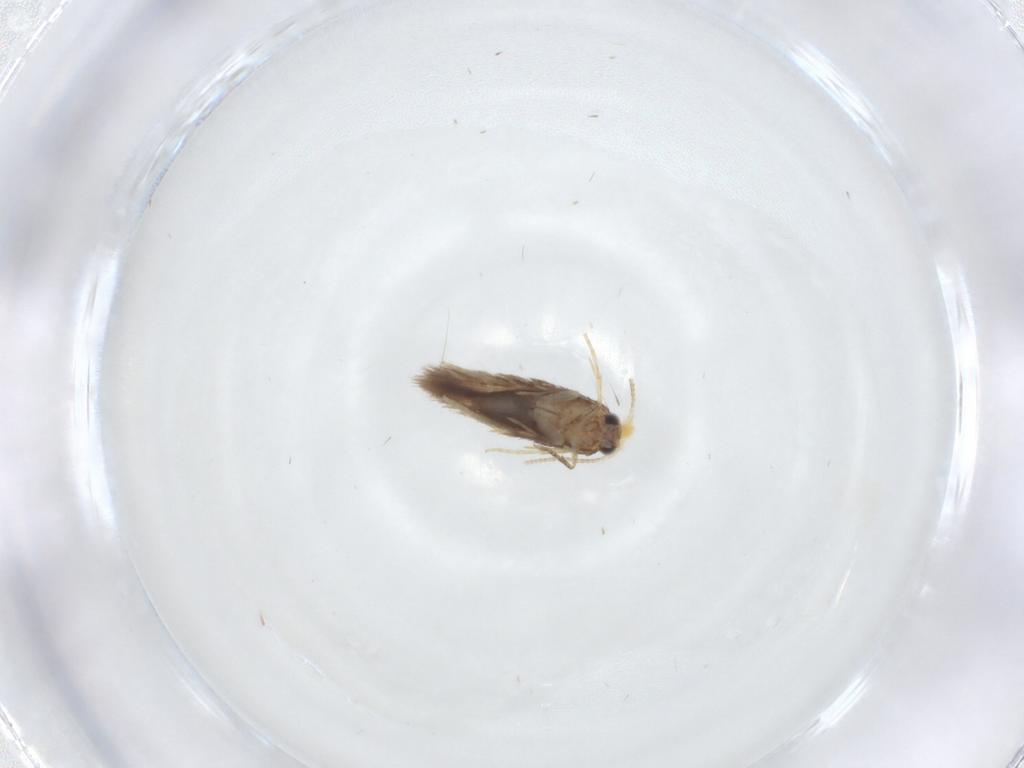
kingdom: Animalia
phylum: Arthropoda
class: Insecta
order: Lepidoptera
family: Nepticulidae
